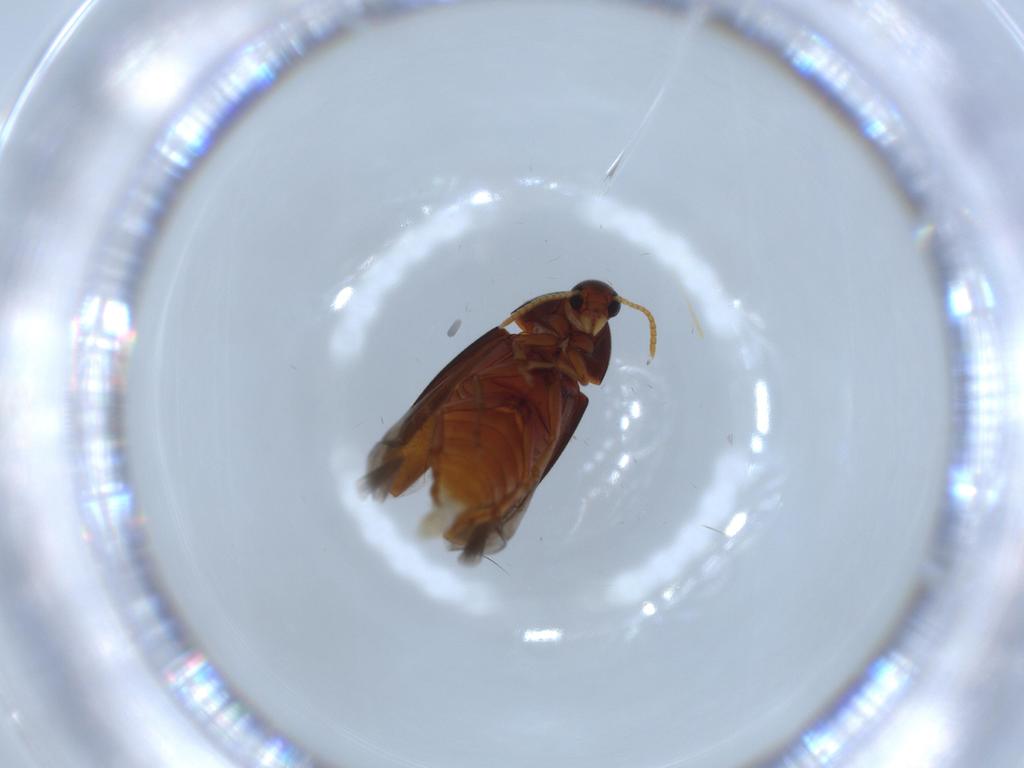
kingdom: Animalia
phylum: Arthropoda
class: Insecta
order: Coleoptera
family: Scraptiidae
